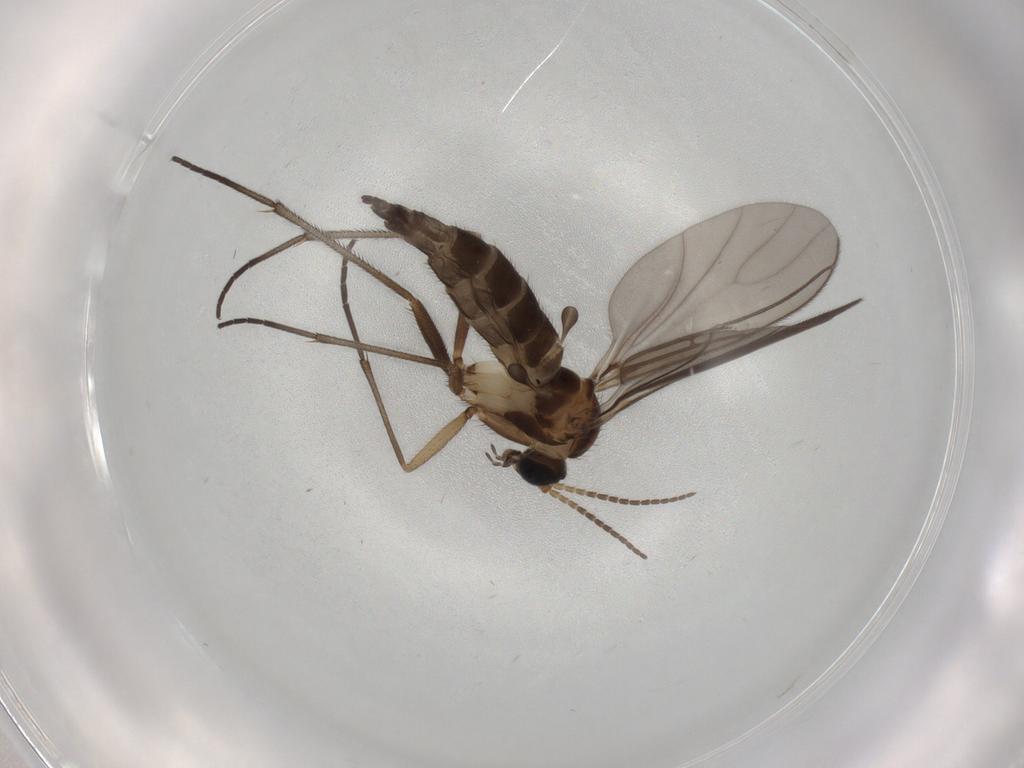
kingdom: Animalia
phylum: Arthropoda
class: Insecta
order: Diptera
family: Sciaridae
